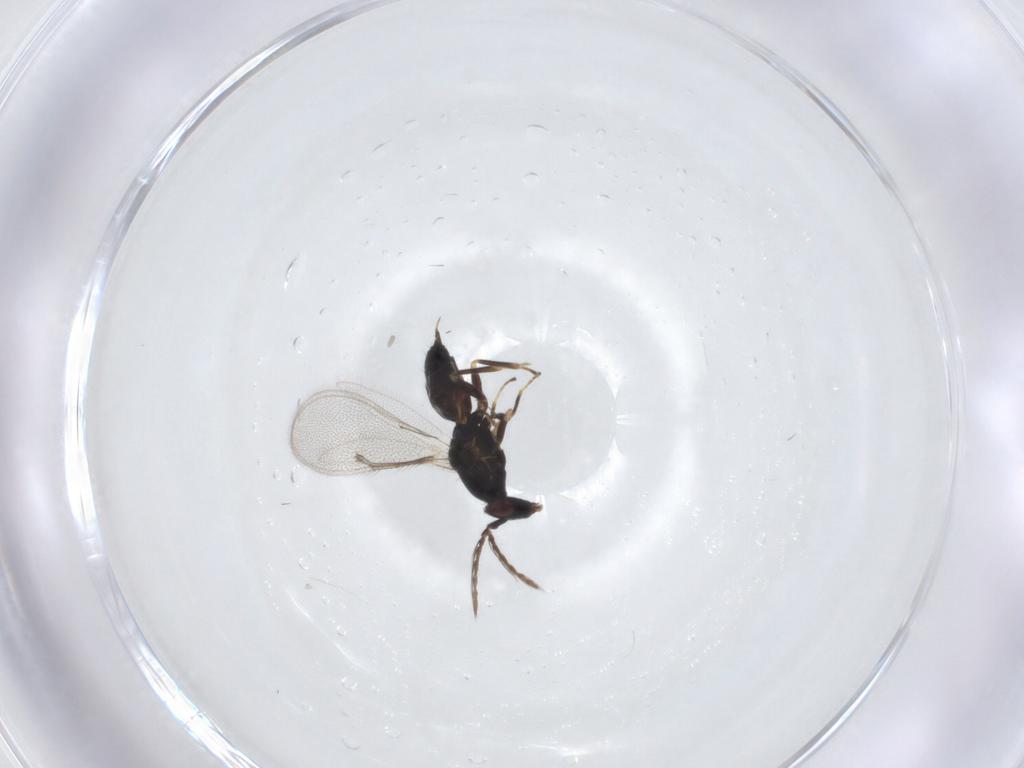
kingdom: Animalia
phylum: Arthropoda
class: Insecta
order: Hymenoptera
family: Eulophidae
